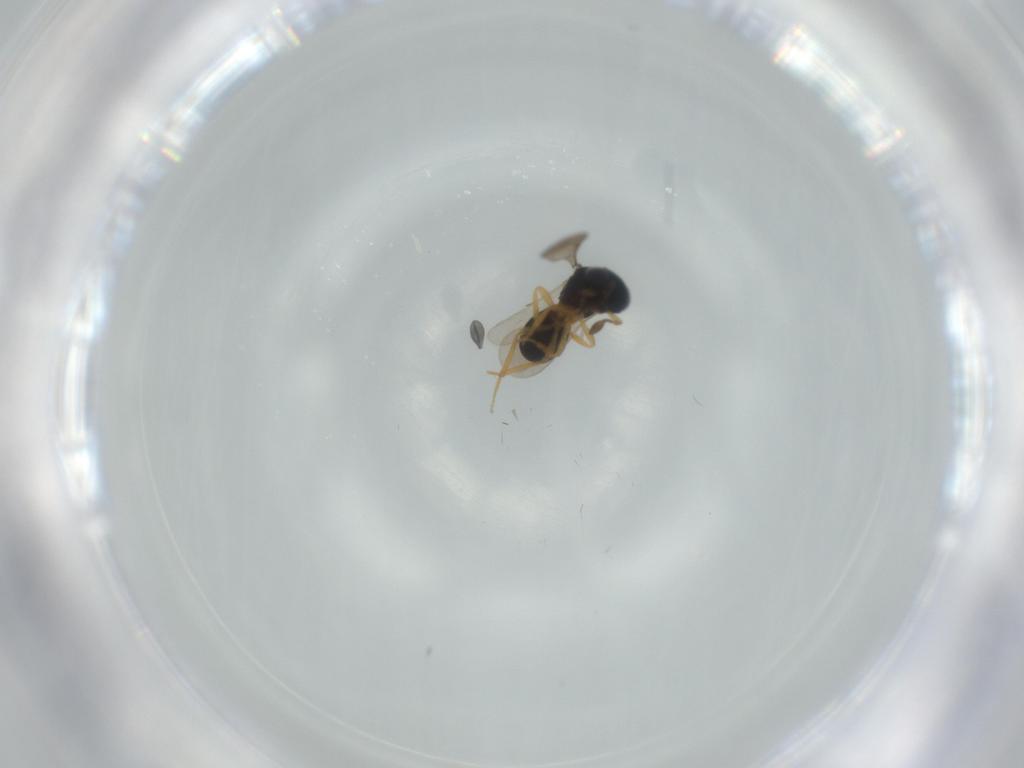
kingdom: Animalia
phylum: Arthropoda
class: Insecta
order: Hymenoptera
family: Scelionidae
